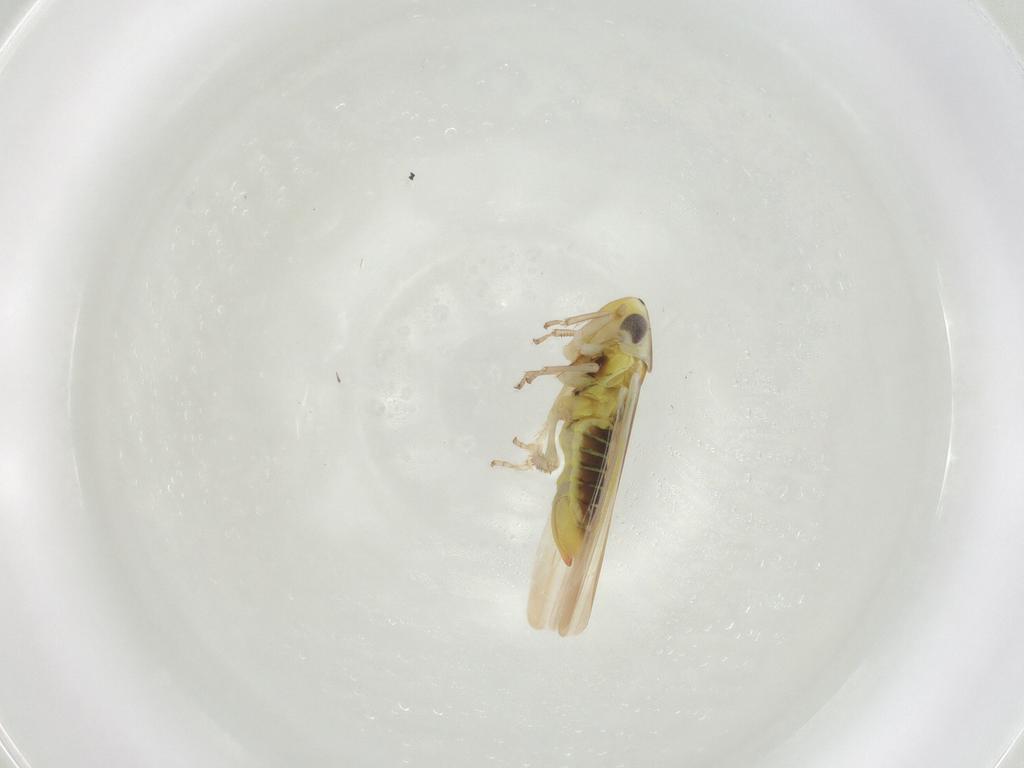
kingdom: Animalia
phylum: Arthropoda
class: Insecta
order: Hemiptera
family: Cicadellidae
